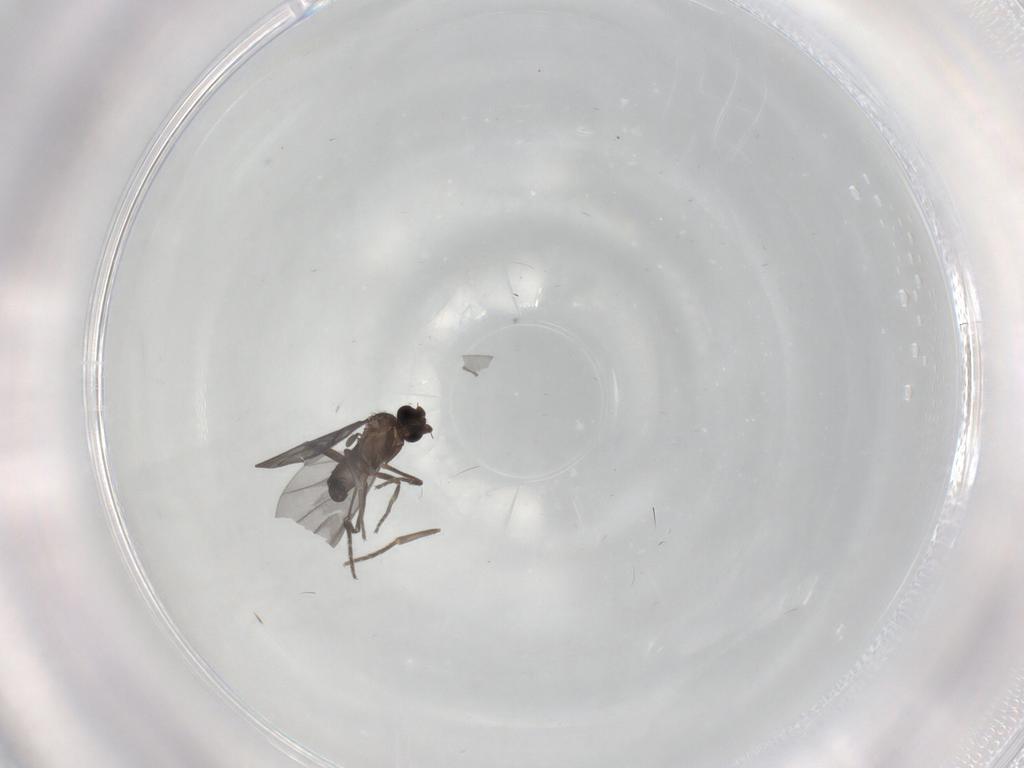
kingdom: Animalia
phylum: Arthropoda
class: Insecta
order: Diptera
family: Phoridae
